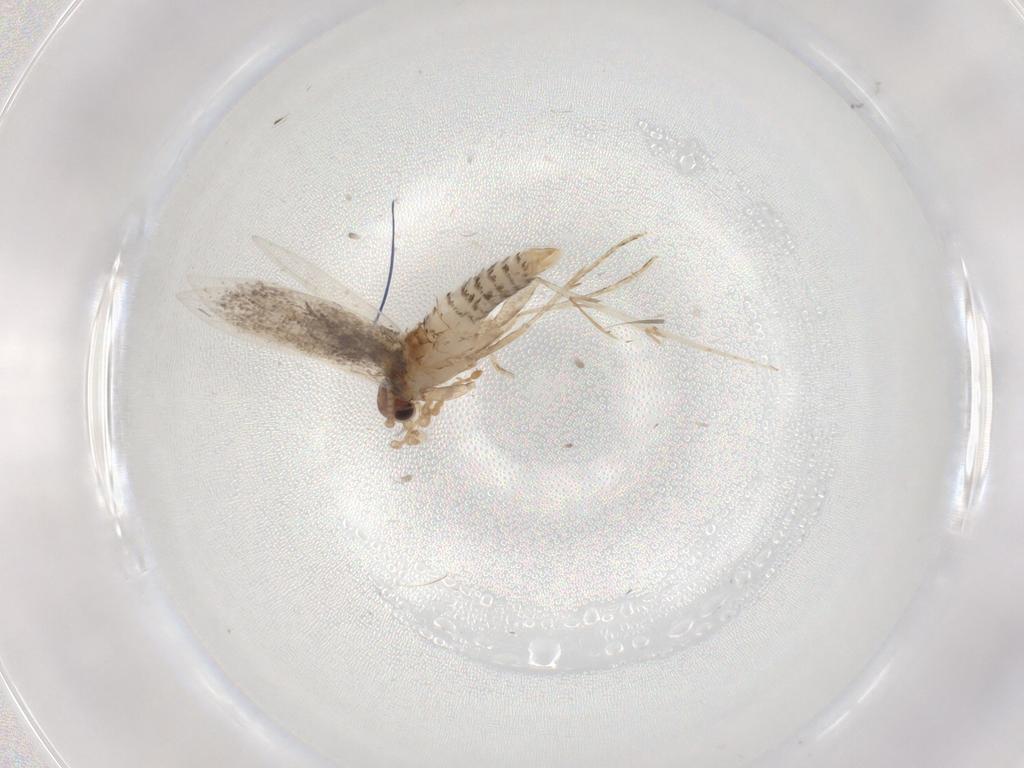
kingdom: Animalia
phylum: Arthropoda
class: Insecta
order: Lepidoptera
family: Tineidae
